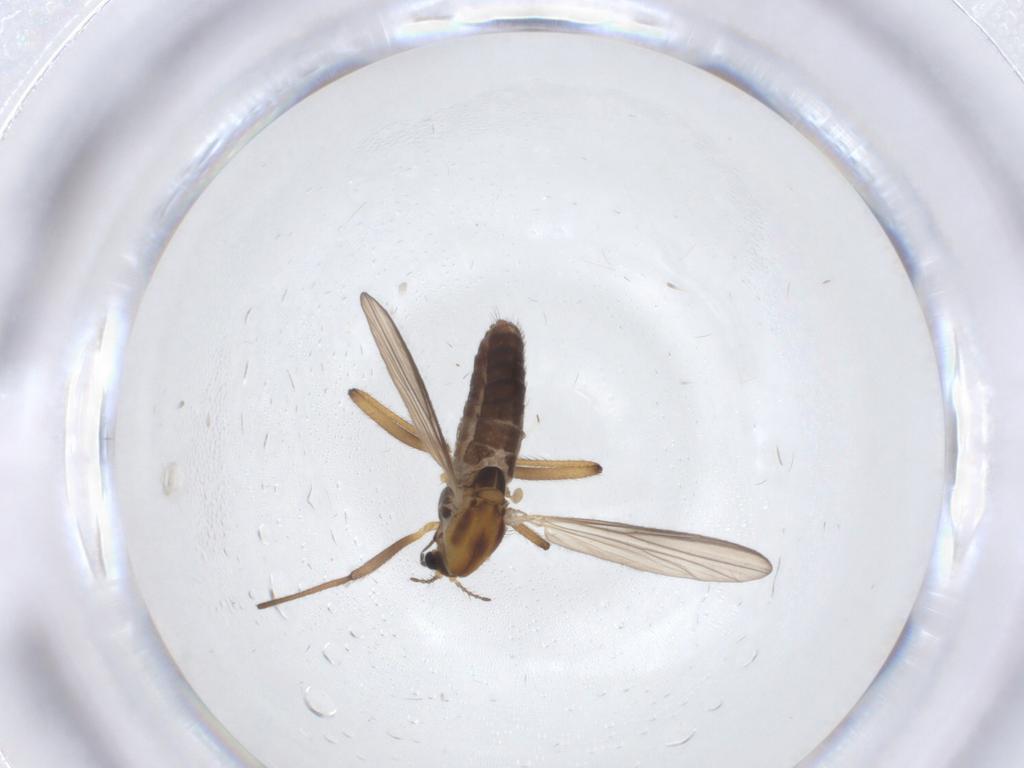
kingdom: Animalia
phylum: Arthropoda
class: Insecta
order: Diptera
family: Chironomidae
